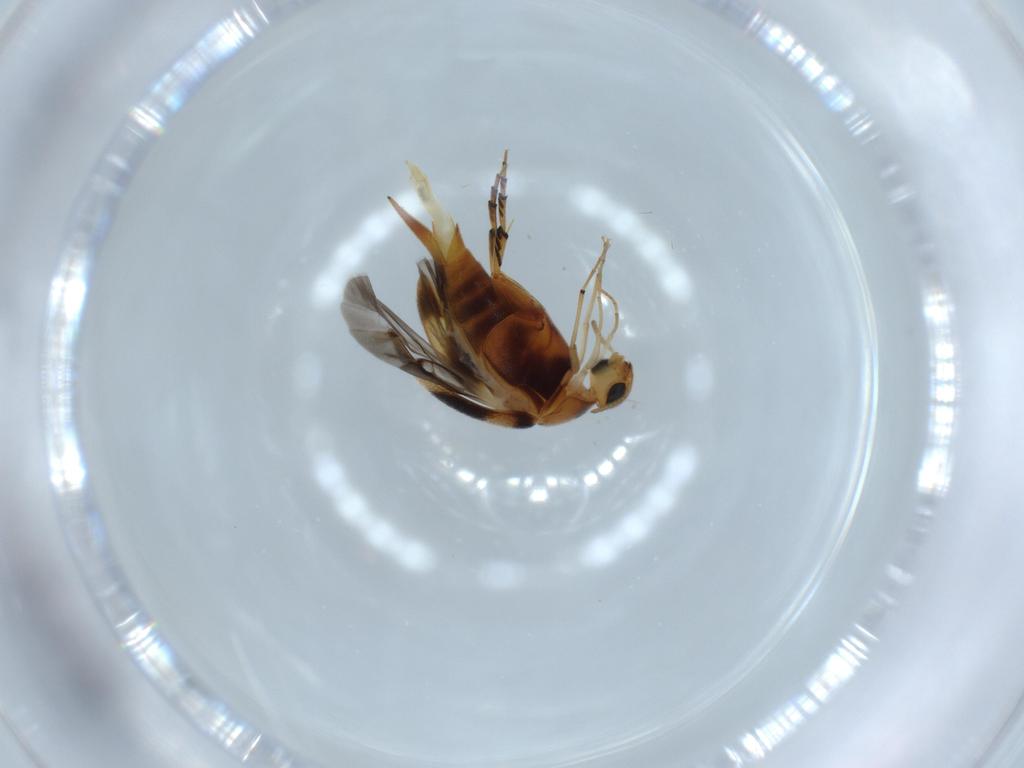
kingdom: Animalia
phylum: Arthropoda
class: Insecta
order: Coleoptera
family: Mordellidae
